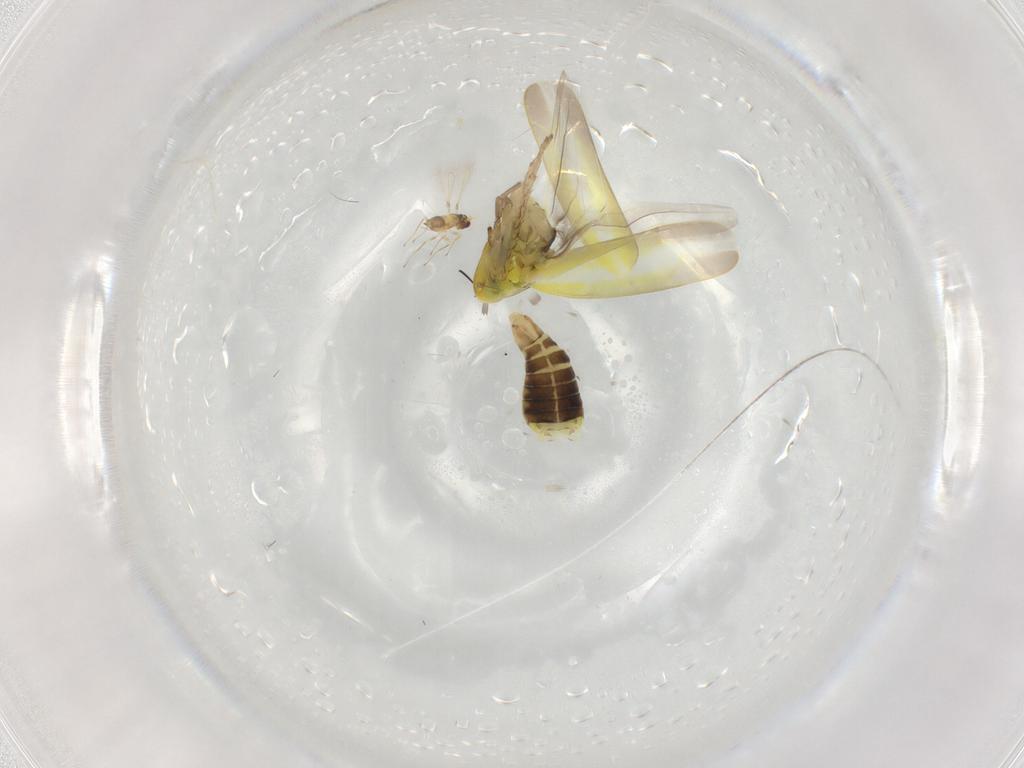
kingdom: Animalia
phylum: Arthropoda
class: Insecta
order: Hemiptera
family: Cicadellidae
